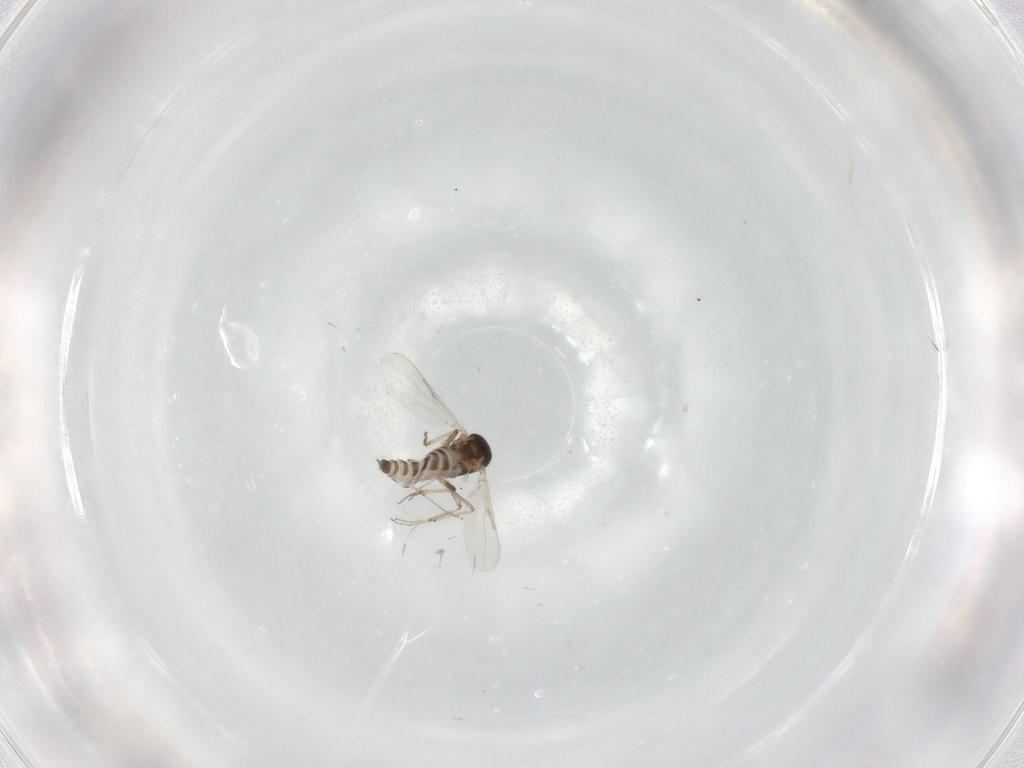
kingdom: Animalia
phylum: Arthropoda
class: Insecta
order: Diptera
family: Ceratopogonidae
